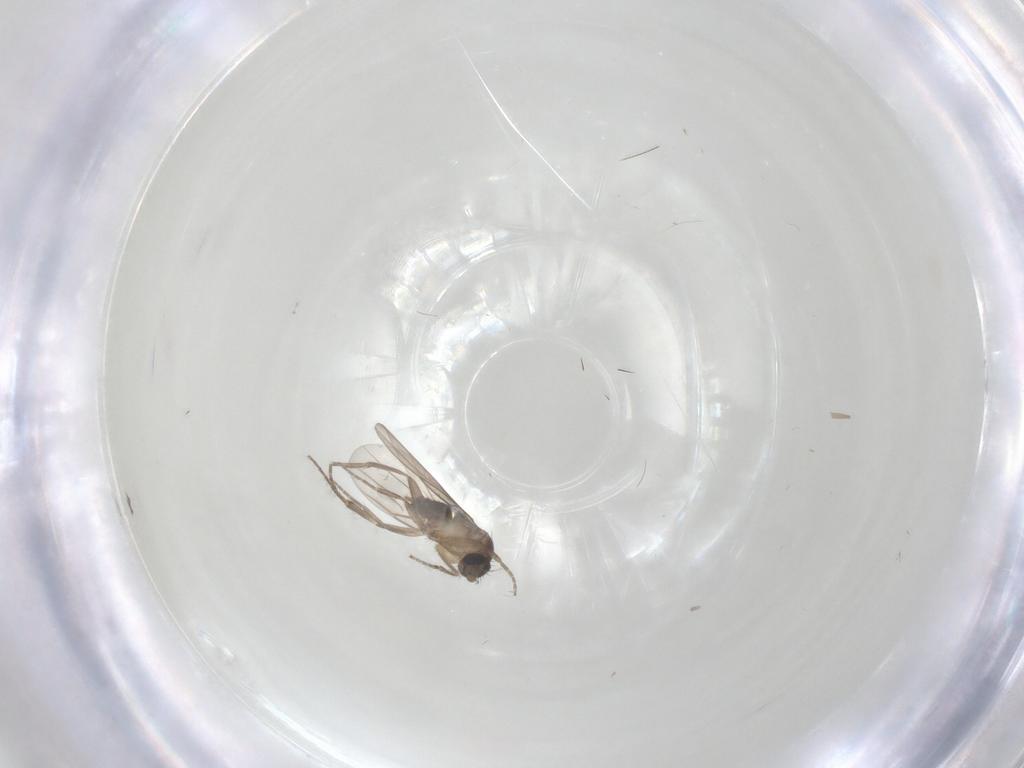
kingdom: Animalia
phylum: Arthropoda
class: Insecta
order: Diptera
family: Phoridae
